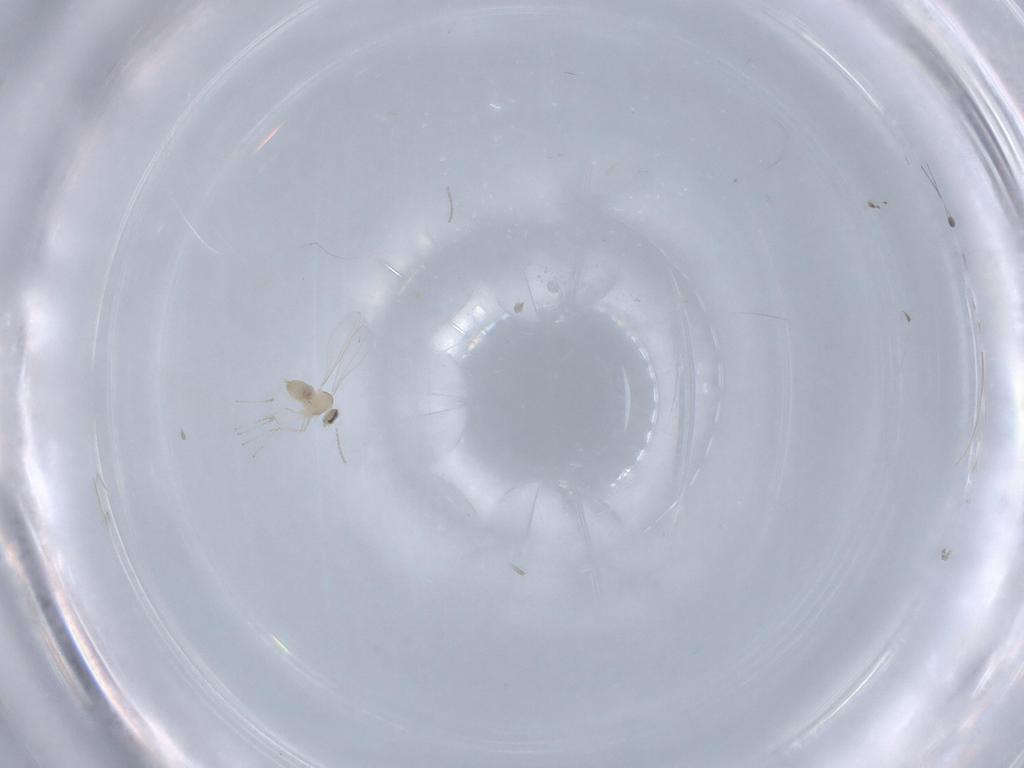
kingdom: Animalia
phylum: Arthropoda
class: Insecta
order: Diptera
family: Cecidomyiidae
